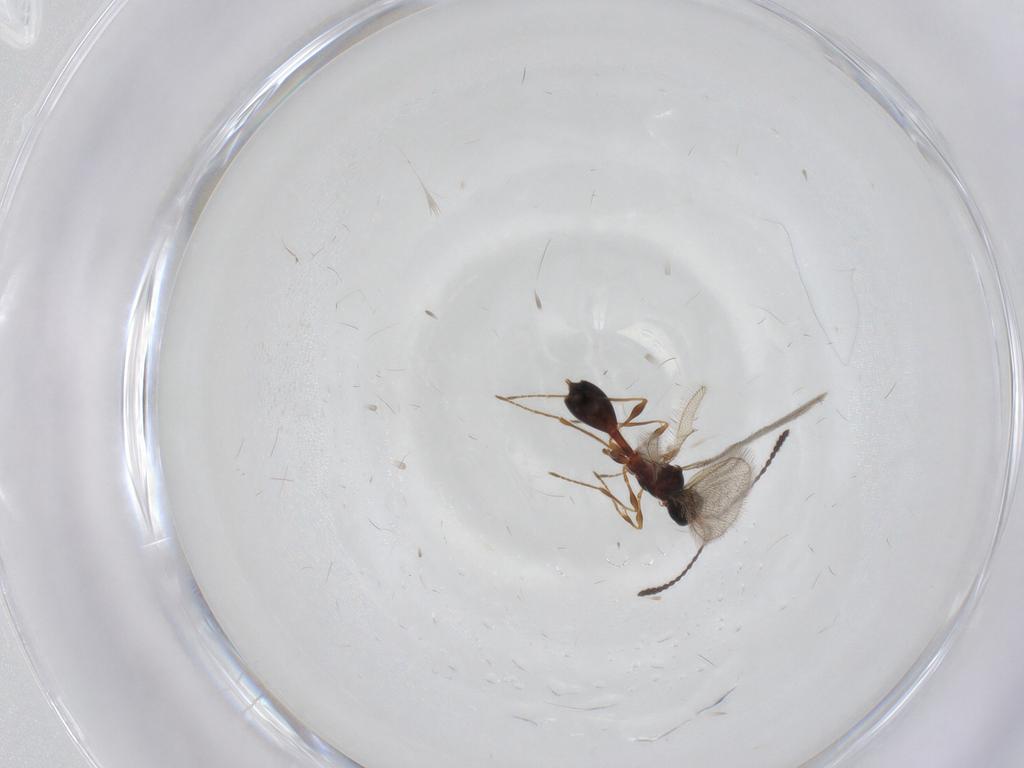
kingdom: Animalia
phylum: Arthropoda
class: Insecta
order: Hymenoptera
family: Diapriidae
